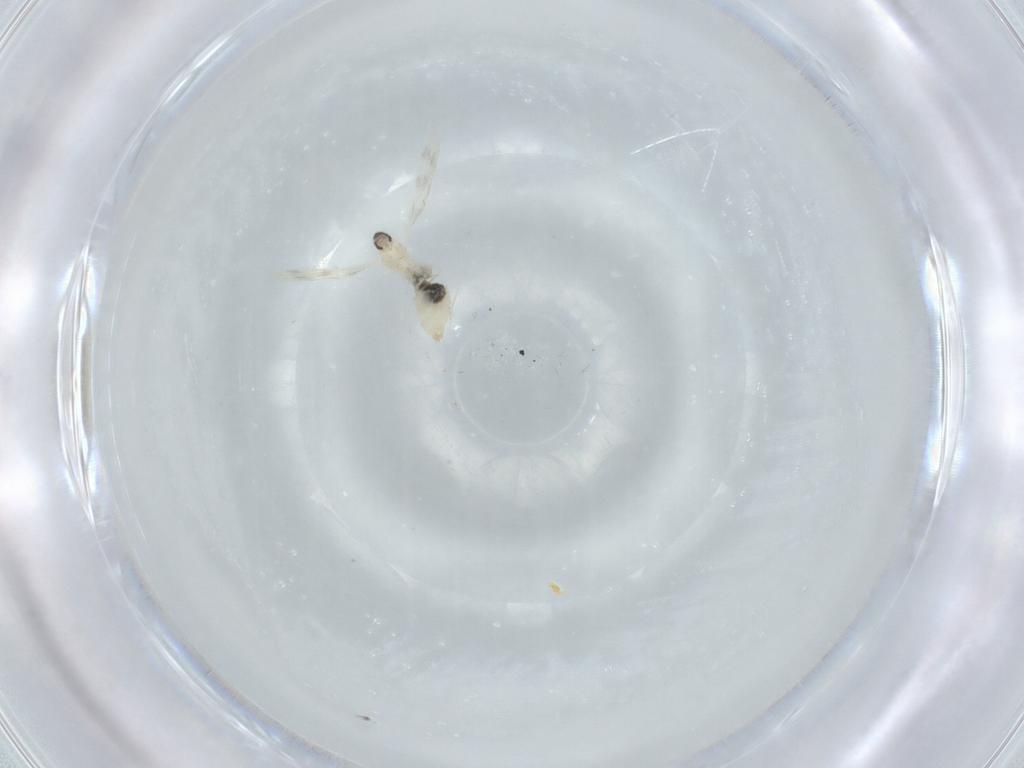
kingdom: Animalia
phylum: Arthropoda
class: Insecta
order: Diptera
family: Cecidomyiidae
